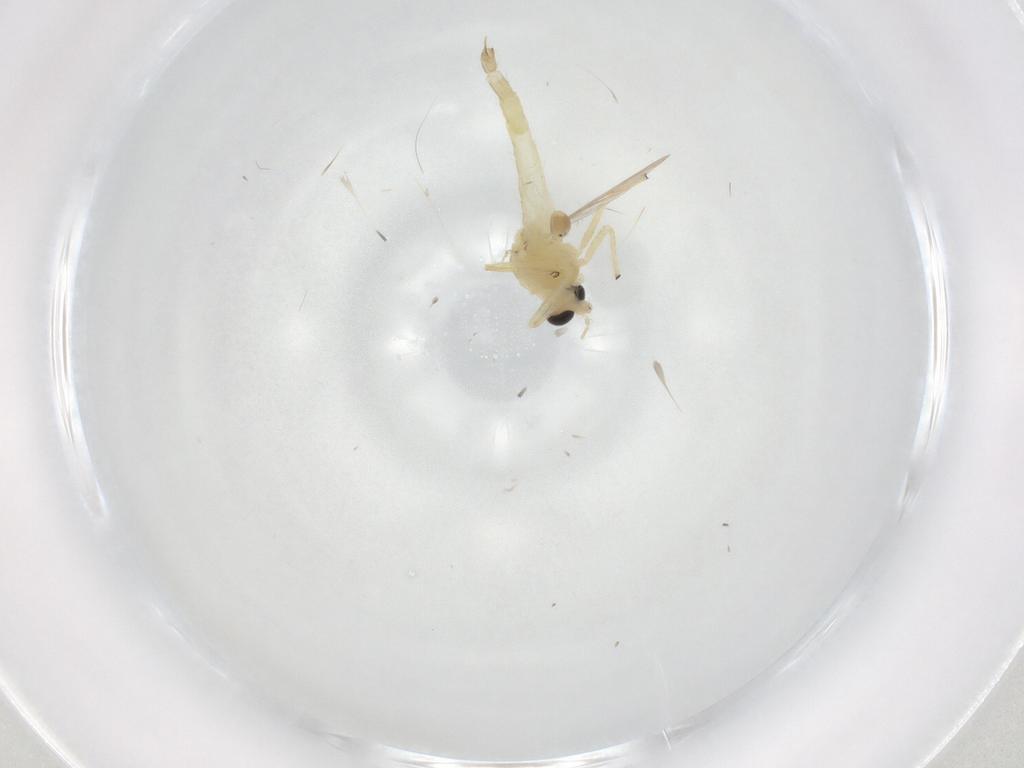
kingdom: Animalia
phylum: Arthropoda
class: Insecta
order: Diptera
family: Chironomidae
